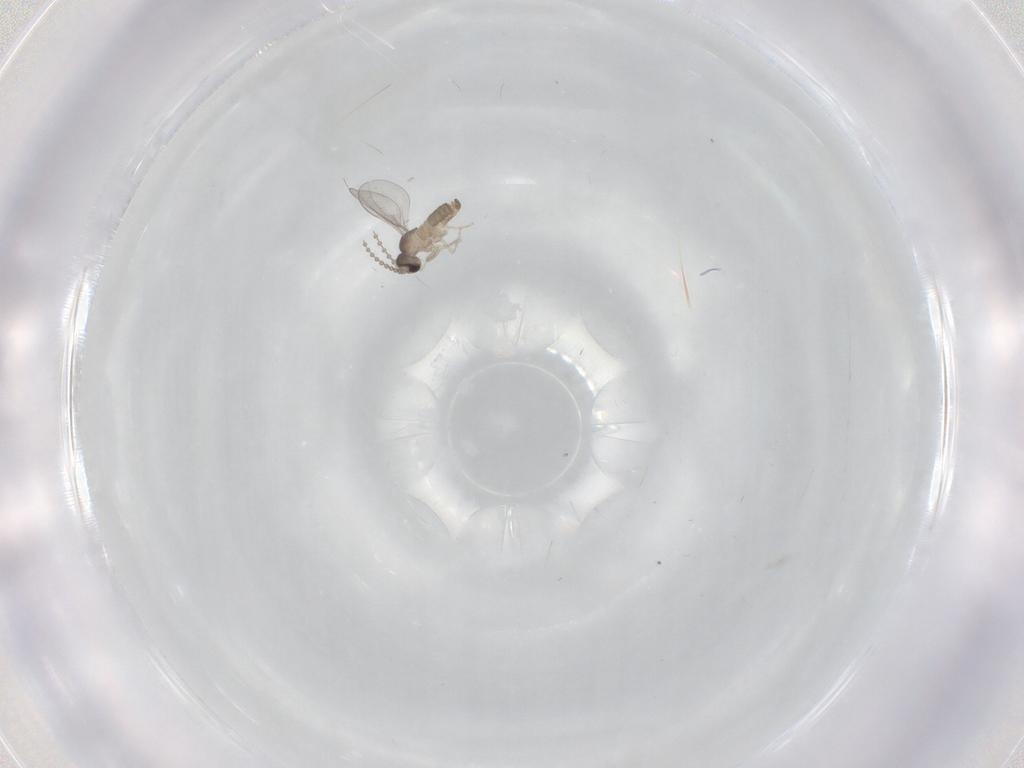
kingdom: Animalia
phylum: Arthropoda
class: Insecta
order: Diptera
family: Cecidomyiidae
